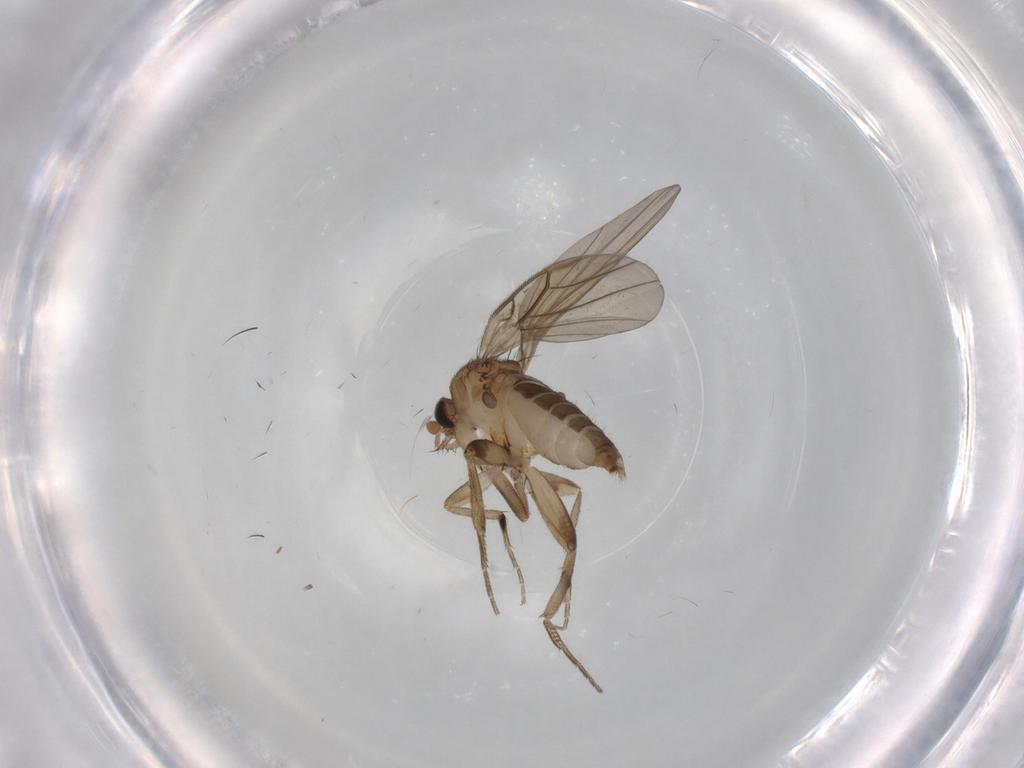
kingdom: Animalia
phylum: Arthropoda
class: Insecta
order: Diptera
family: Phoridae
